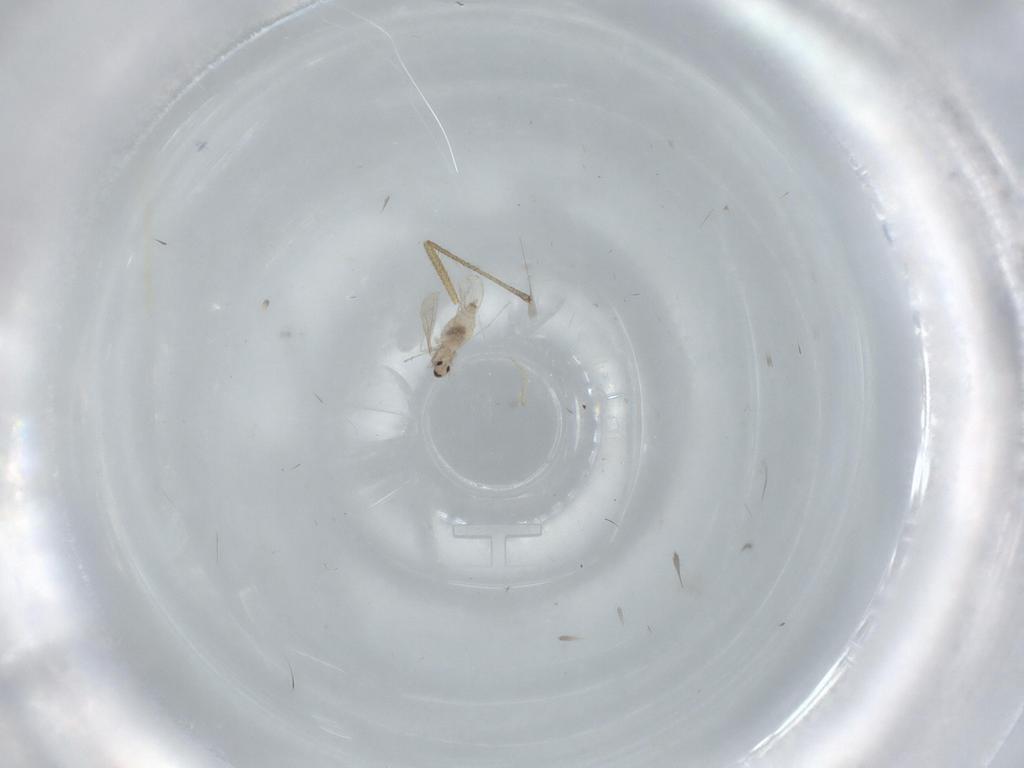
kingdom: Animalia
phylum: Arthropoda
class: Insecta
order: Diptera
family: Cecidomyiidae
